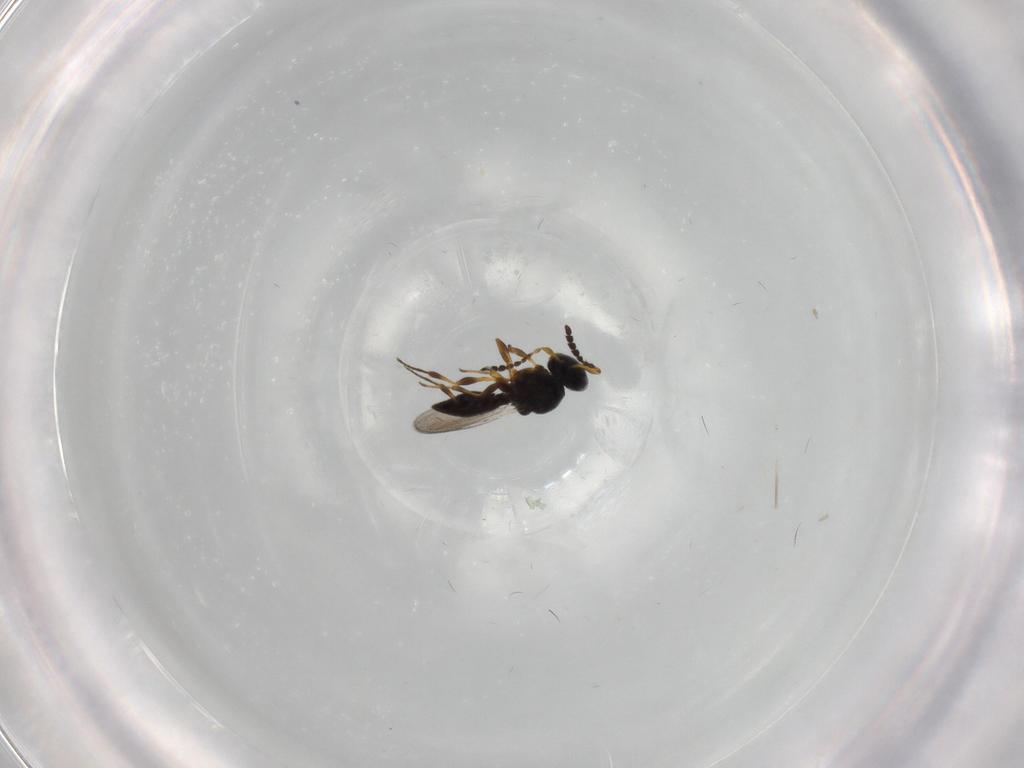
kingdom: Animalia
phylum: Arthropoda
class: Insecta
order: Hymenoptera
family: Platygastridae
